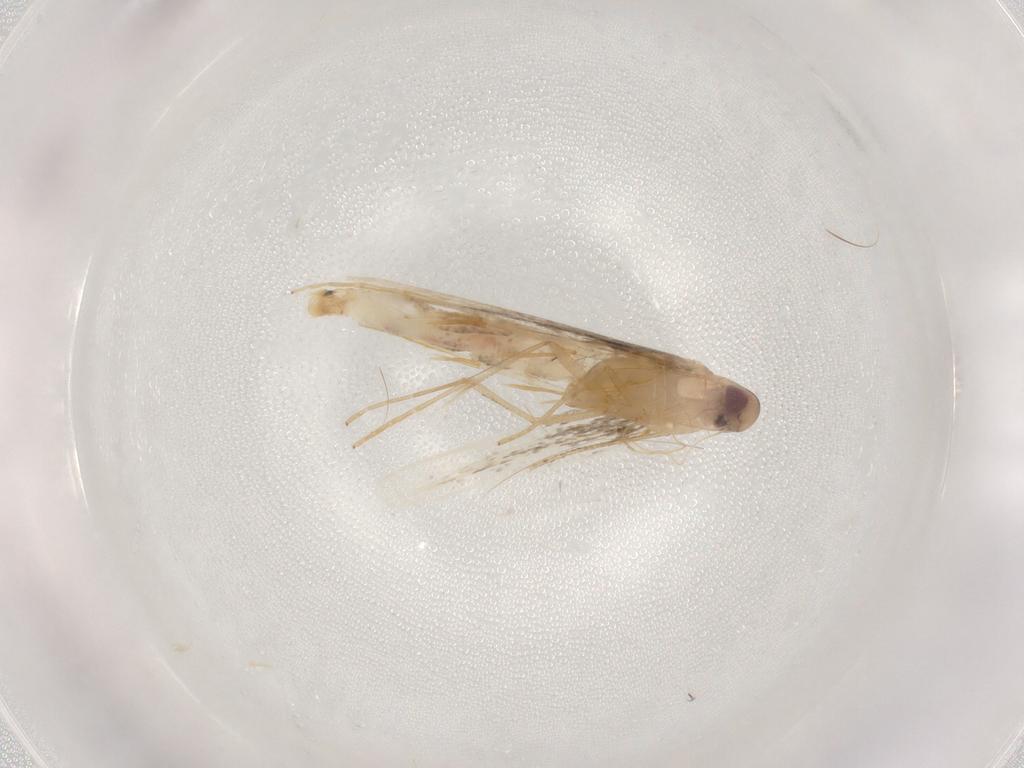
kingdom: Animalia
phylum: Arthropoda
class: Insecta
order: Lepidoptera
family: Cosmopterigidae
